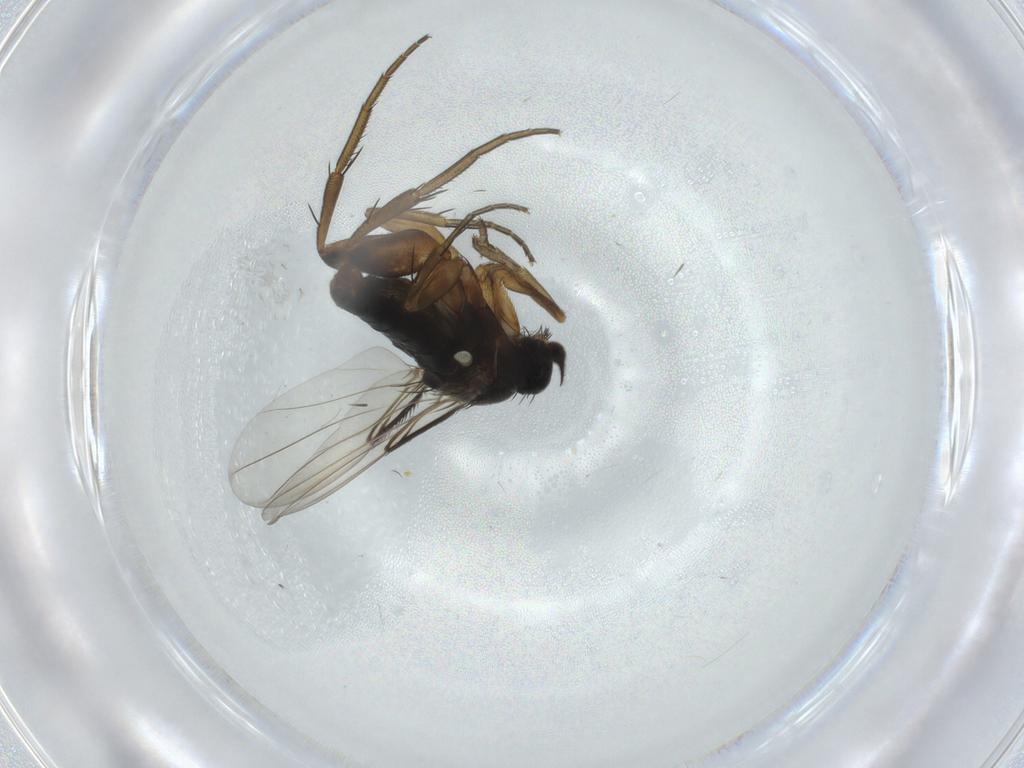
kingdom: Animalia
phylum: Arthropoda
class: Insecta
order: Diptera
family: Phoridae
